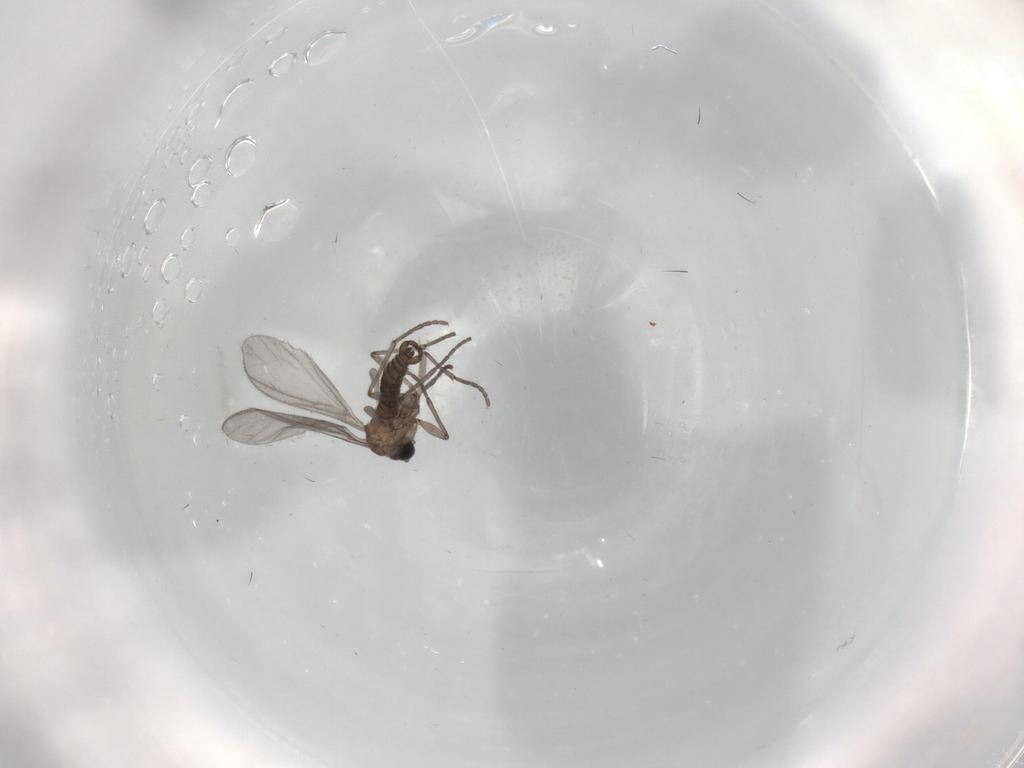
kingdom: Animalia
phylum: Arthropoda
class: Insecta
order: Diptera
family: Sciaridae
